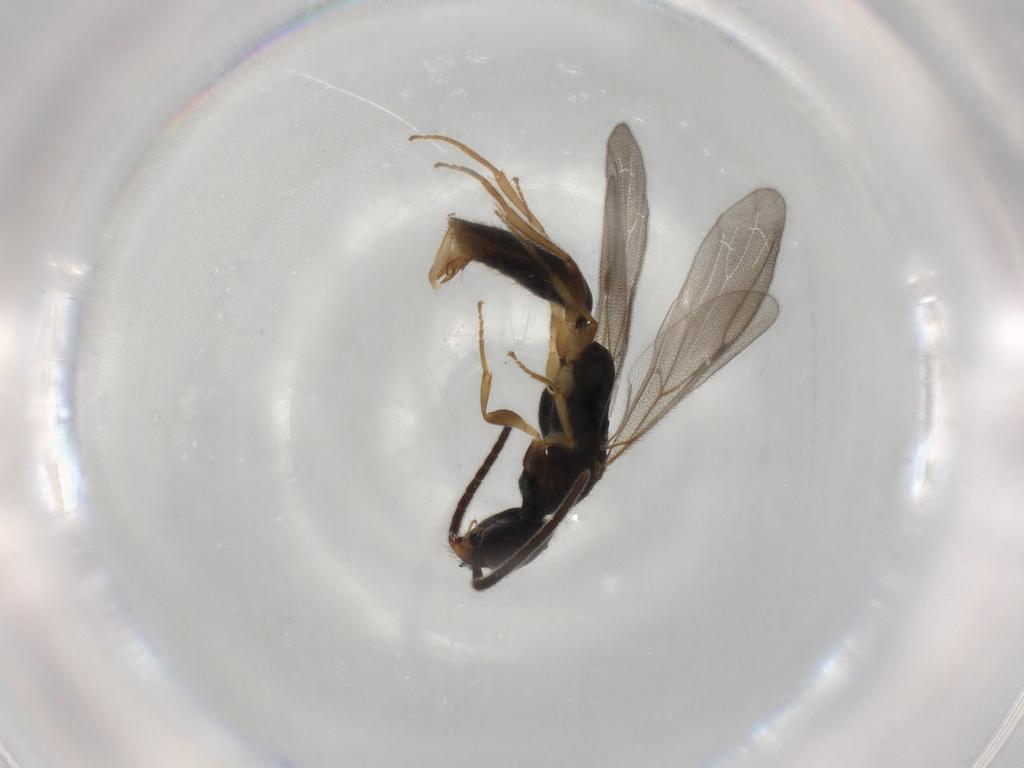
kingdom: Animalia
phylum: Arthropoda
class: Insecta
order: Hymenoptera
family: Bethylidae
